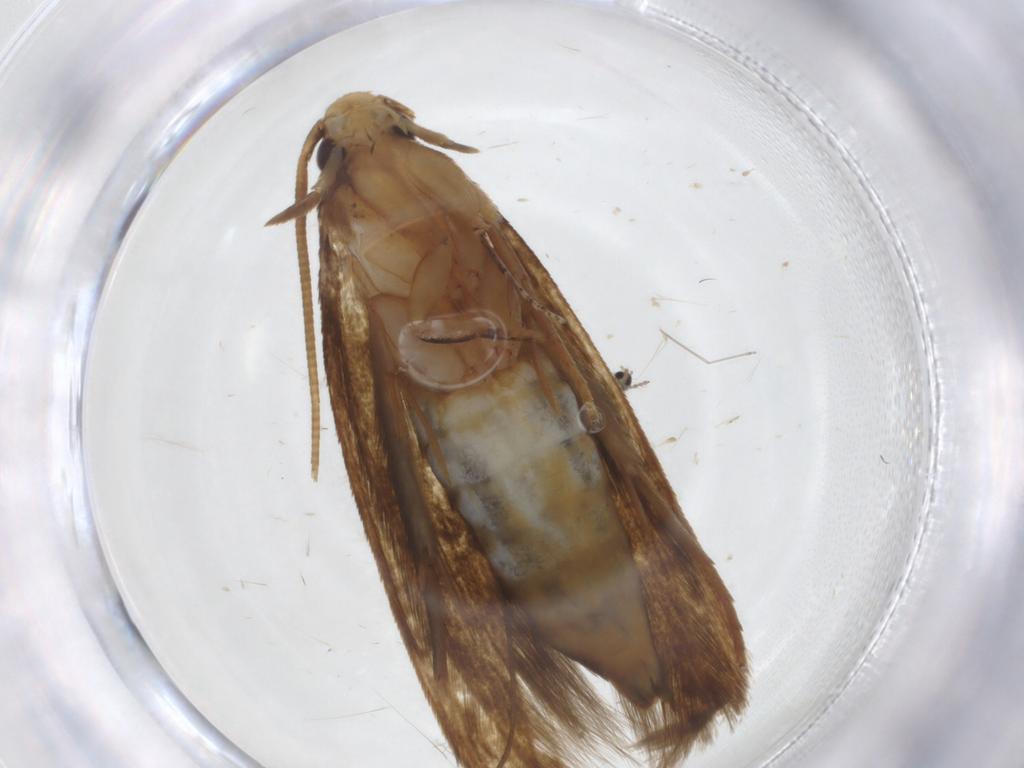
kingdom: Animalia
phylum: Arthropoda
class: Insecta
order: Lepidoptera
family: Tineidae
